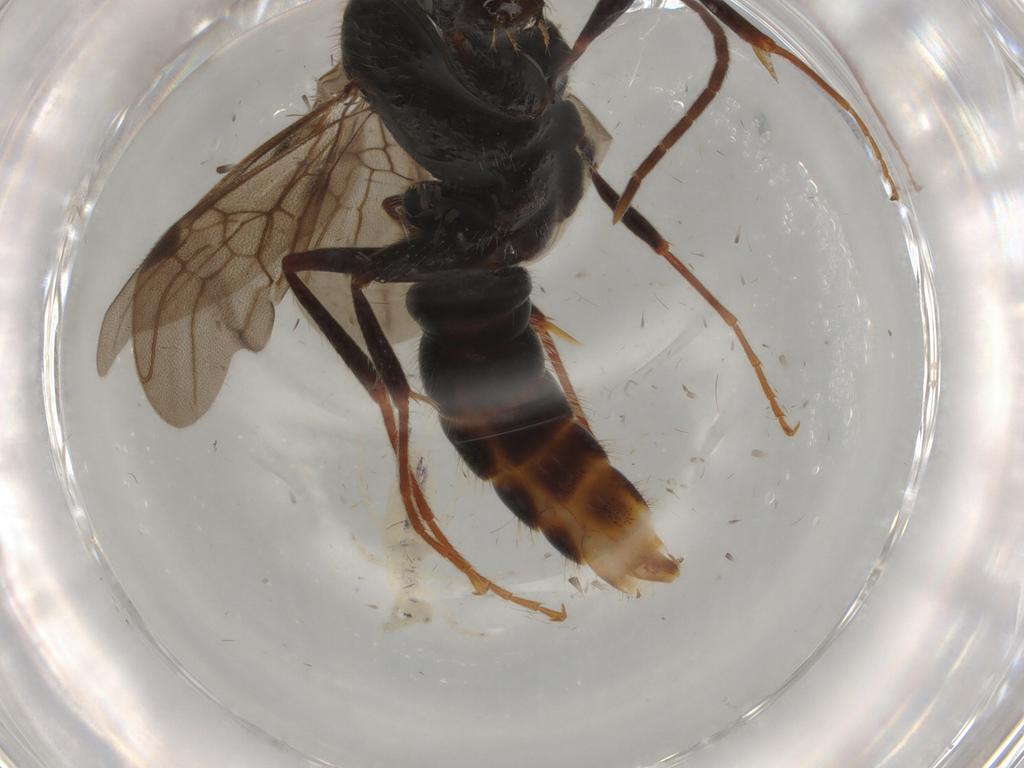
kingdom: Animalia
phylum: Arthropoda
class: Insecta
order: Hymenoptera
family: Formicidae
